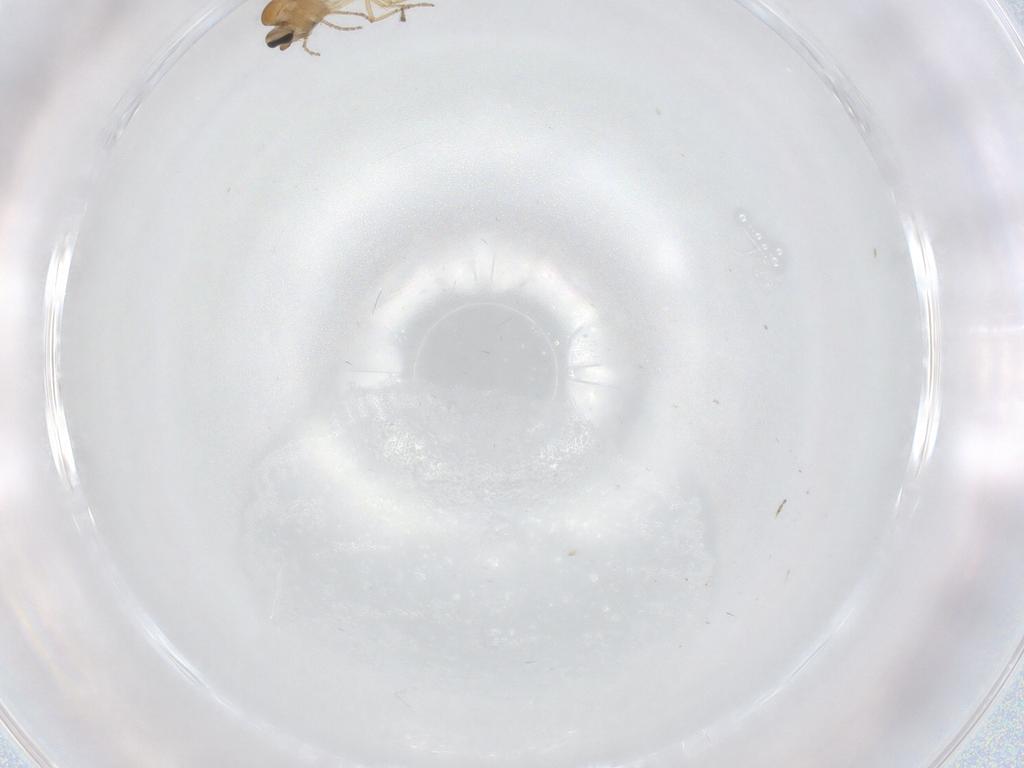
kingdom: Animalia
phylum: Arthropoda
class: Insecta
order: Diptera
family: Ceratopogonidae
